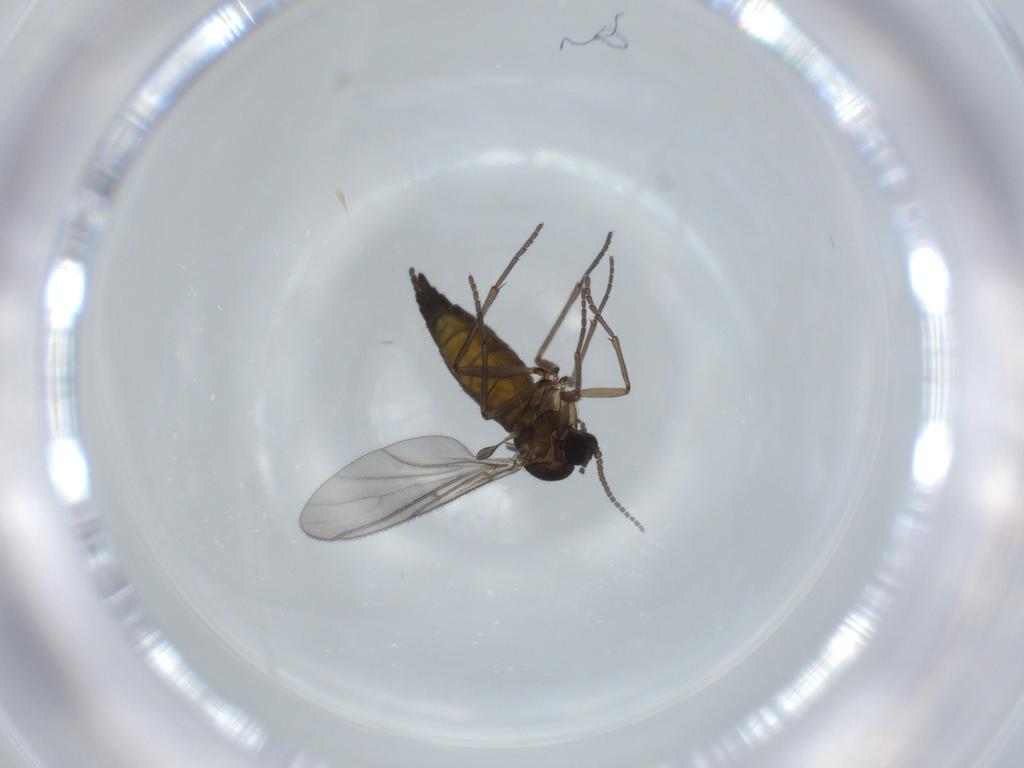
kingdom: Animalia
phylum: Arthropoda
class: Insecta
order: Diptera
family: Sciaridae
